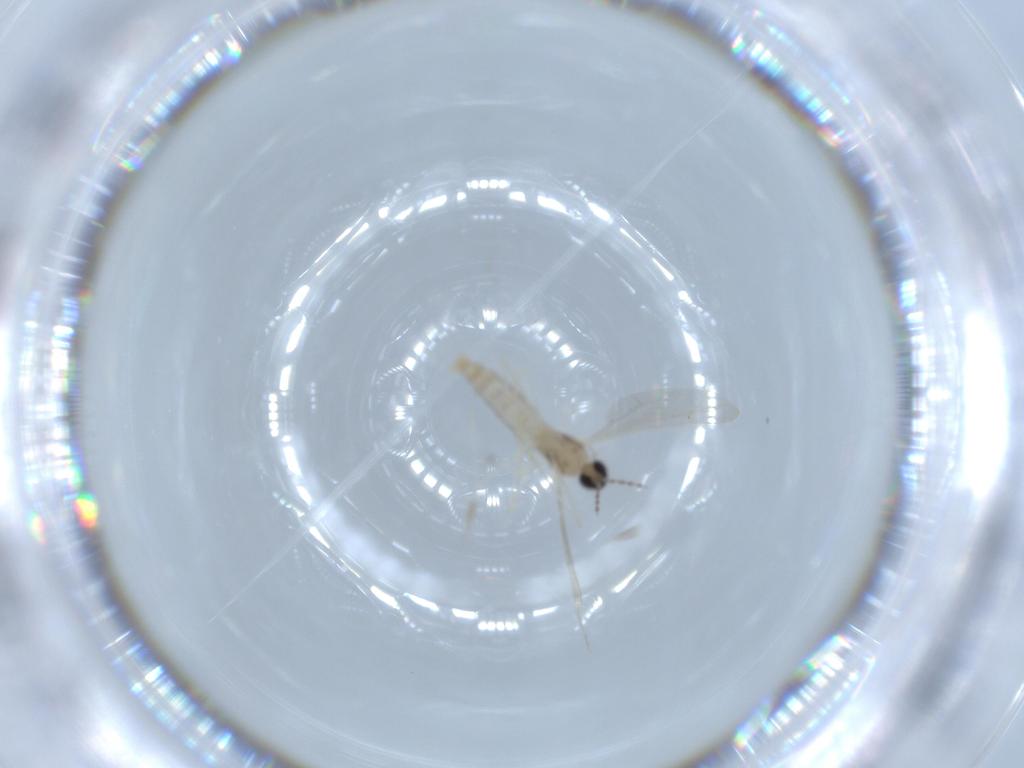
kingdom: Animalia
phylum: Arthropoda
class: Insecta
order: Diptera
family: Cecidomyiidae
